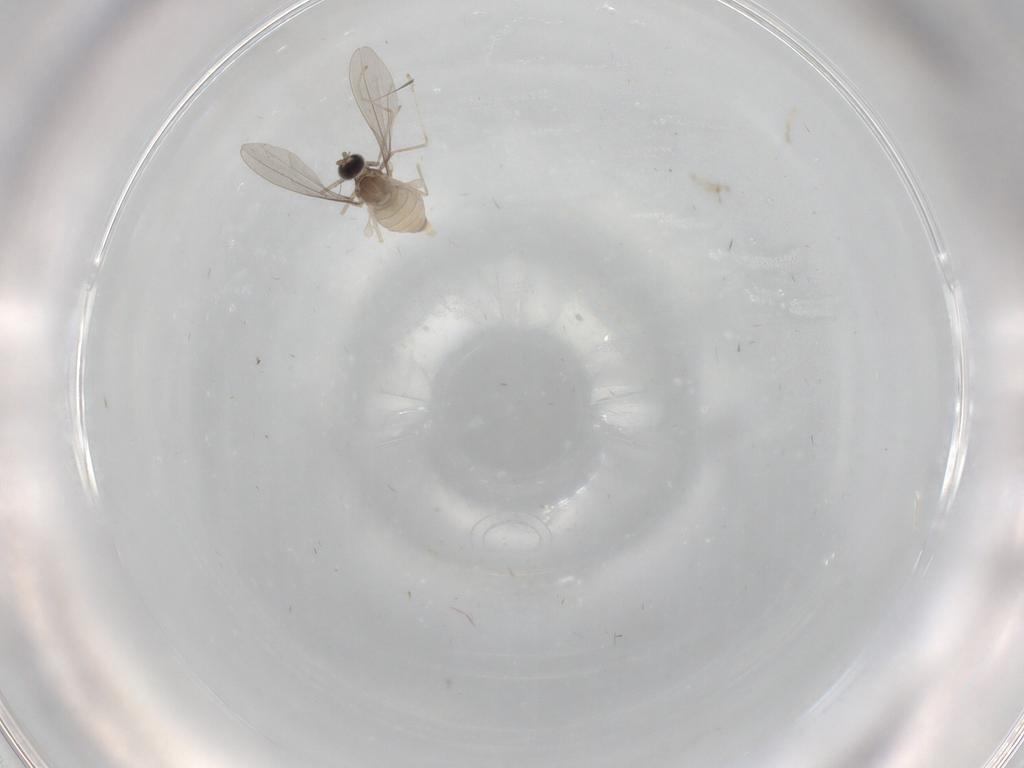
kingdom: Animalia
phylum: Arthropoda
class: Insecta
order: Diptera
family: Cecidomyiidae
